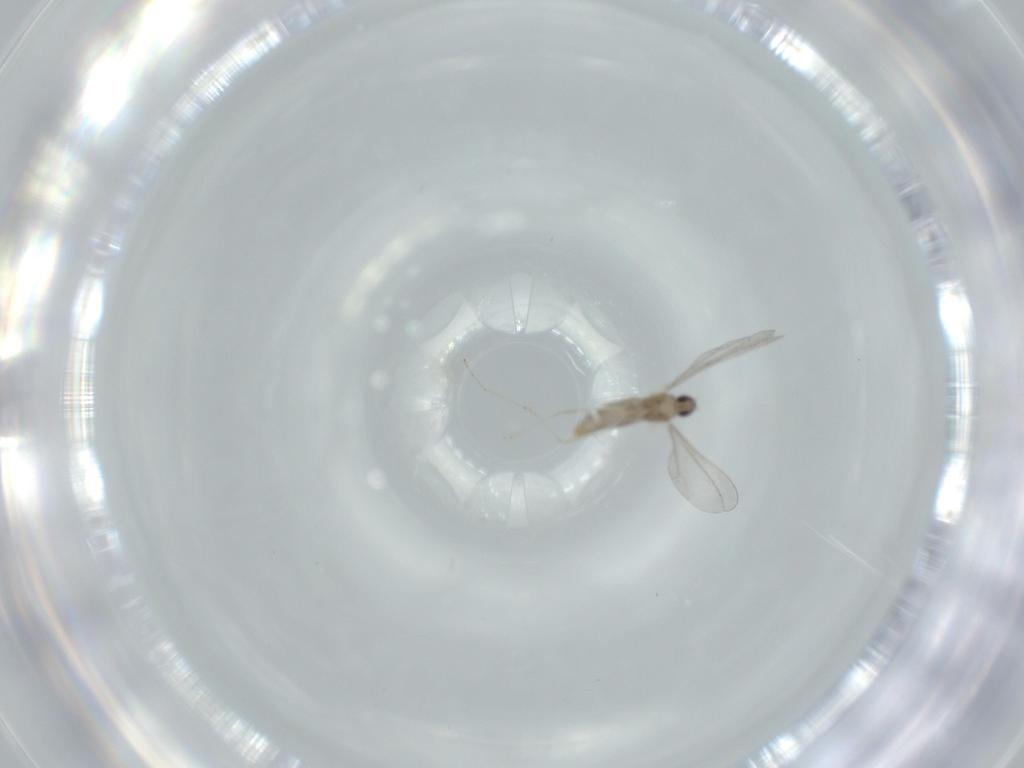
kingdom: Animalia
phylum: Arthropoda
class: Insecta
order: Diptera
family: Cecidomyiidae
